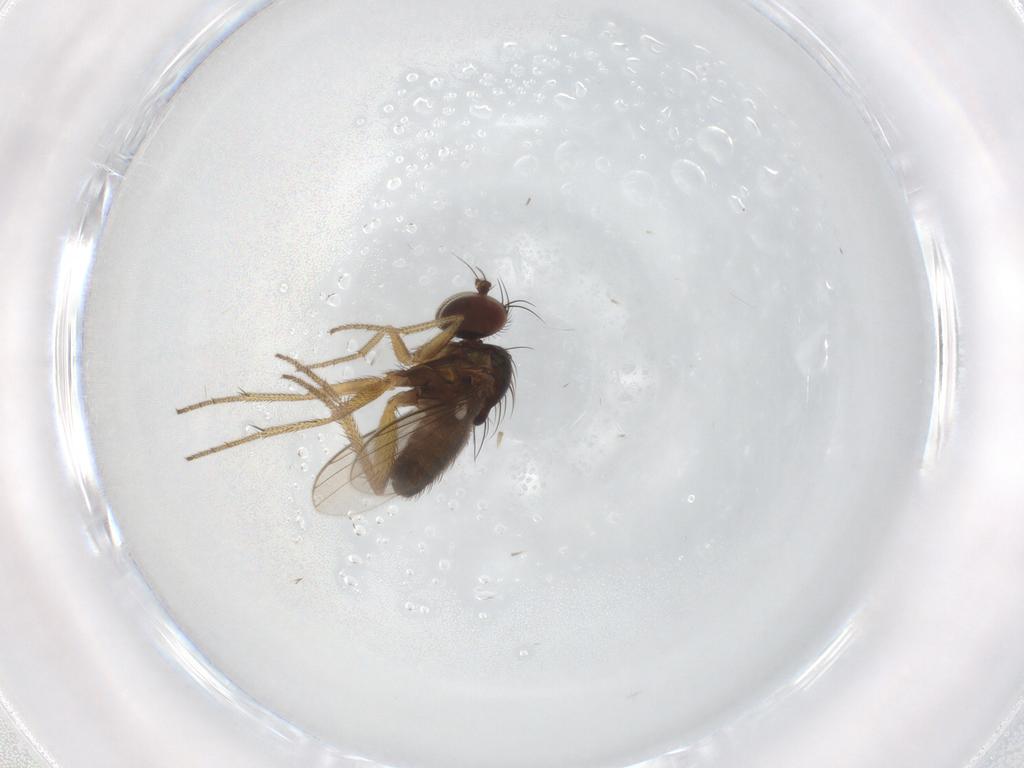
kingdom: Animalia
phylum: Arthropoda
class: Insecta
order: Diptera
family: Dolichopodidae
